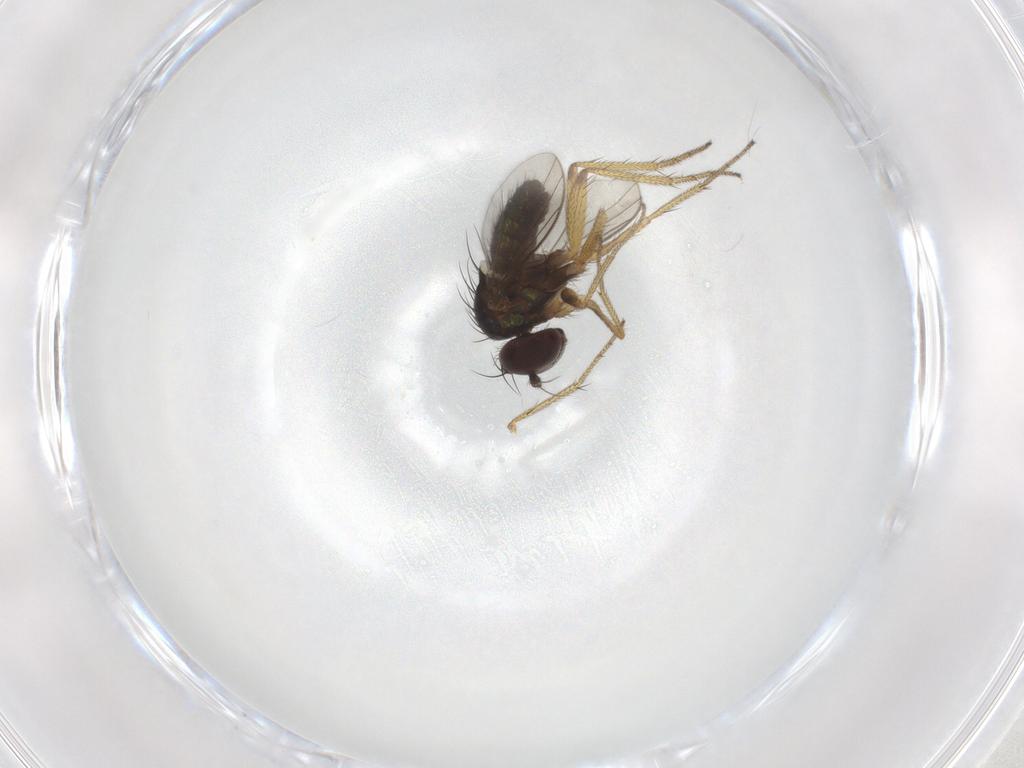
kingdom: Animalia
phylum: Arthropoda
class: Insecta
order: Diptera
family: Dolichopodidae
